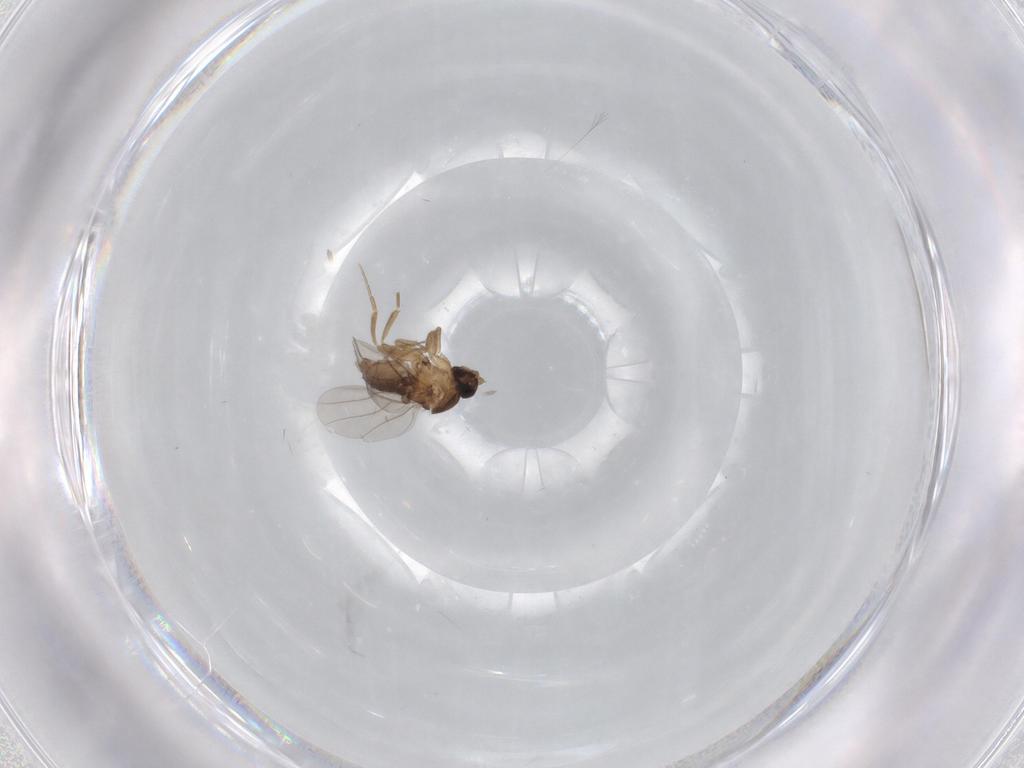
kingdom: Animalia
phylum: Arthropoda
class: Insecta
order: Diptera
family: Phoridae
